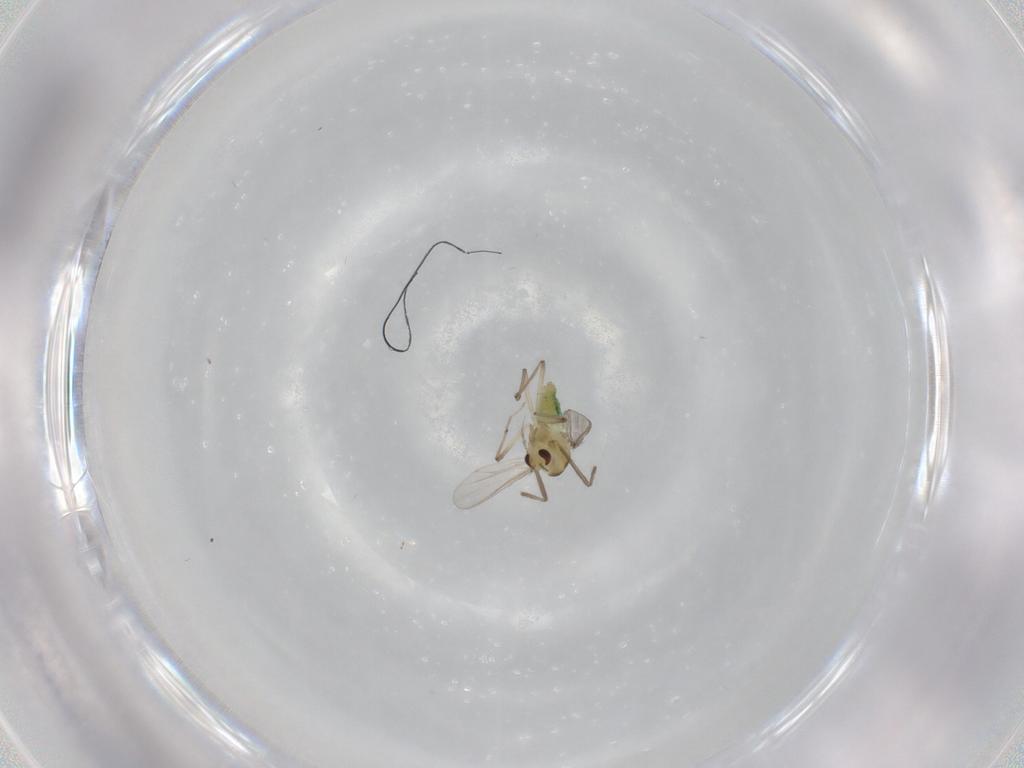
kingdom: Animalia
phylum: Arthropoda
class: Insecta
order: Diptera
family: Chironomidae
